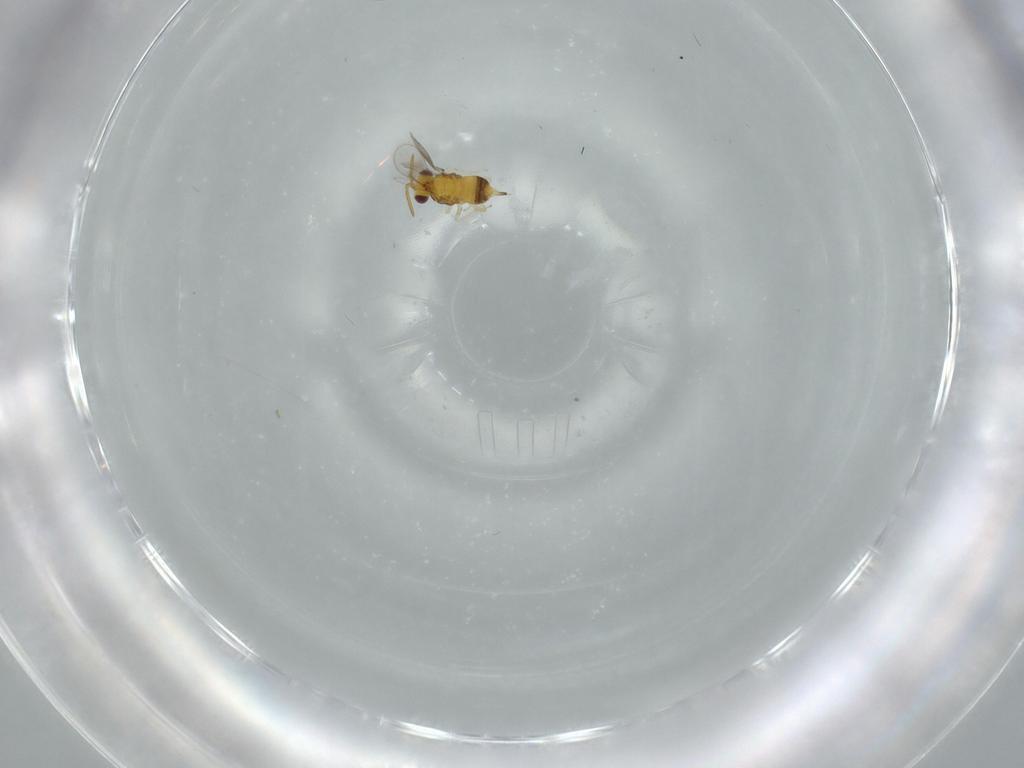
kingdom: Animalia
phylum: Arthropoda
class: Insecta
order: Hymenoptera
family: Aphelinidae
